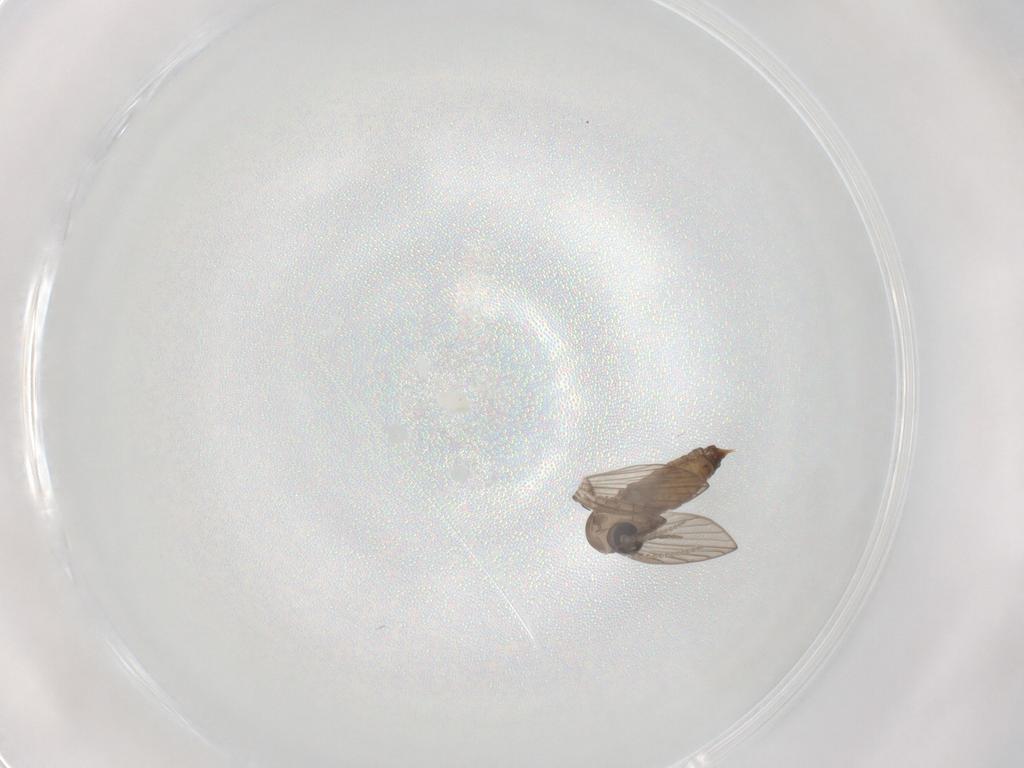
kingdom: Animalia
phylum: Arthropoda
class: Insecta
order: Diptera
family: Psychodidae
